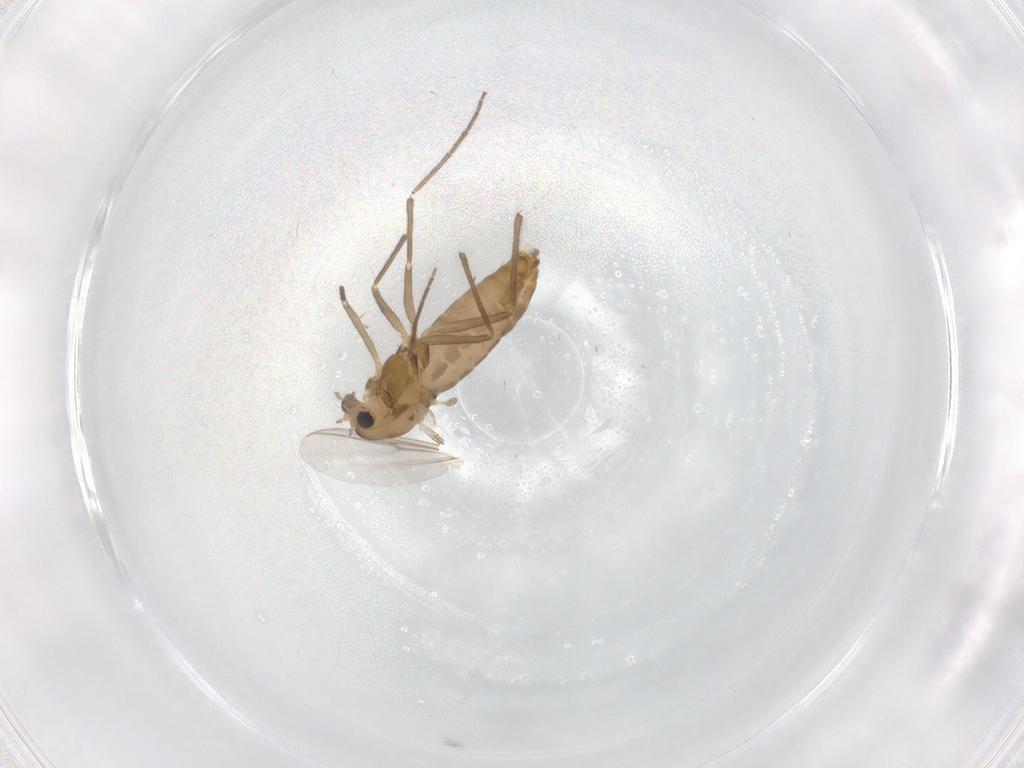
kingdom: Animalia
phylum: Arthropoda
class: Insecta
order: Diptera
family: Chironomidae
